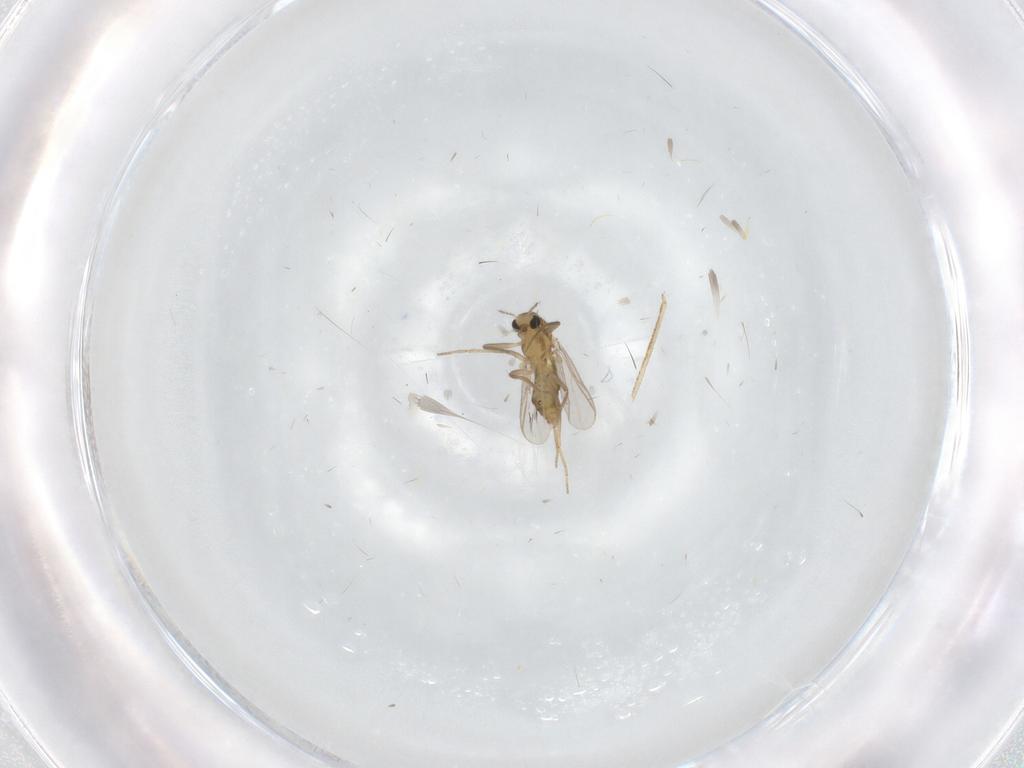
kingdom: Animalia
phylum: Arthropoda
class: Insecta
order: Diptera
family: Chironomidae
